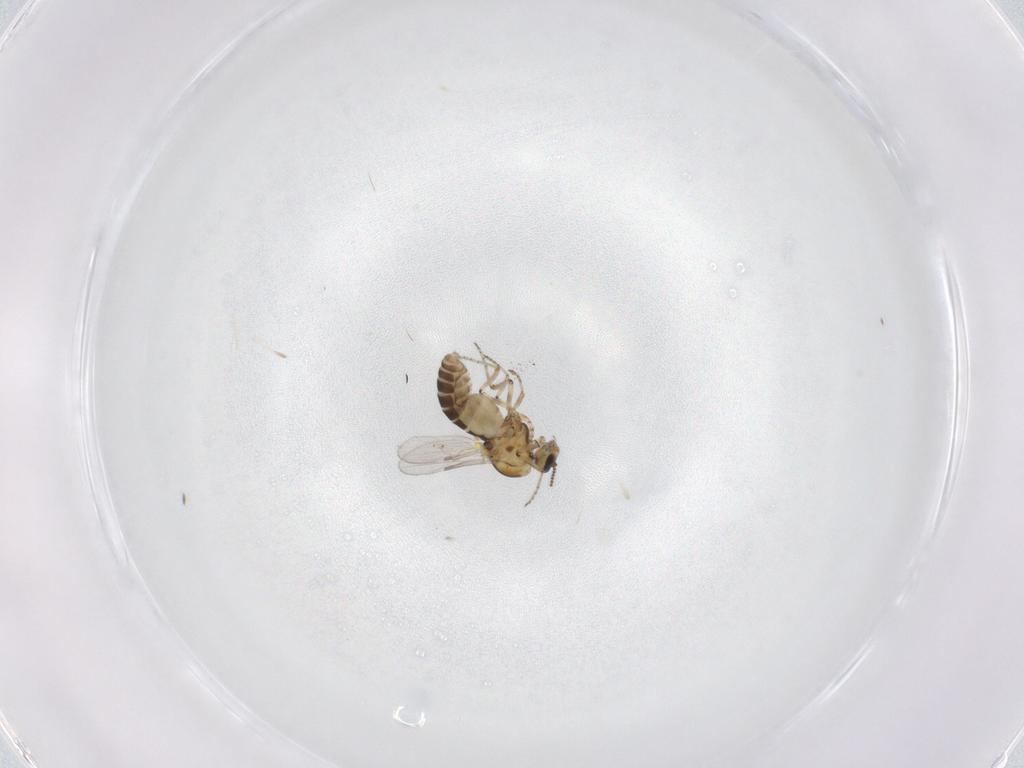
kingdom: Animalia
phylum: Arthropoda
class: Insecta
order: Diptera
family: Ceratopogonidae
